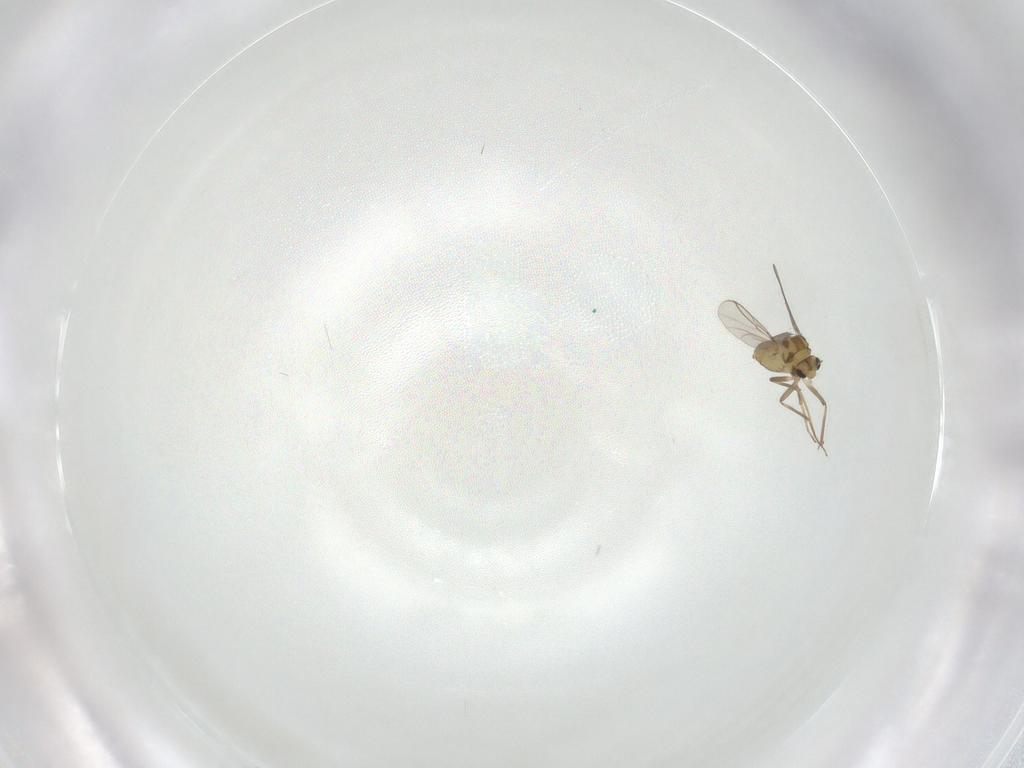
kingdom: Animalia
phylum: Arthropoda
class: Insecta
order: Diptera
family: Chironomidae
